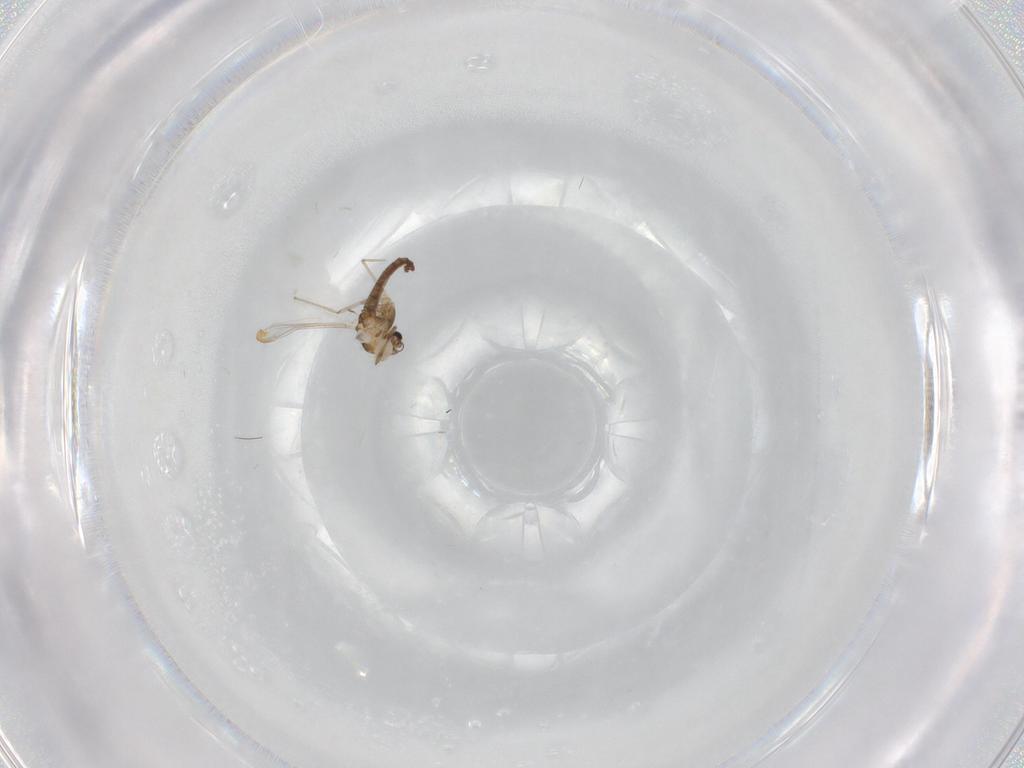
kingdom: Animalia
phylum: Arthropoda
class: Insecta
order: Diptera
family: Chironomidae
